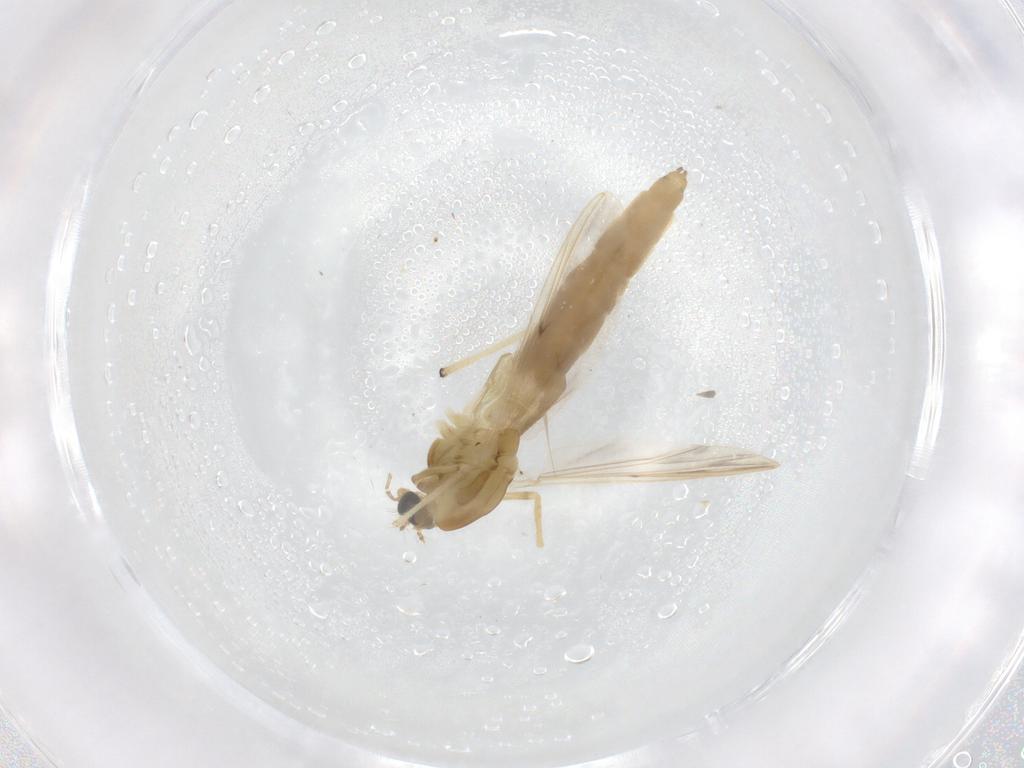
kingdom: Animalia
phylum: Arthropoda
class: Insecta
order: Diptera
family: Chironomidae
